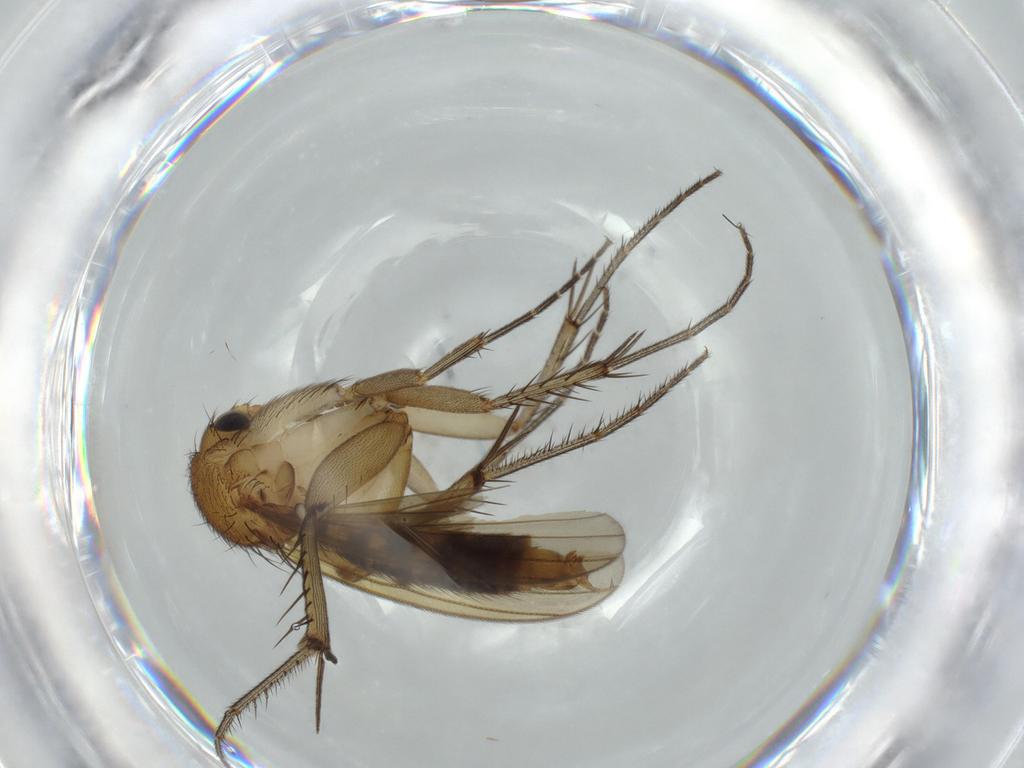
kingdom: Animalia
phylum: Arthropoda
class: Insecta
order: Diptera
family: Mycetophilidae
